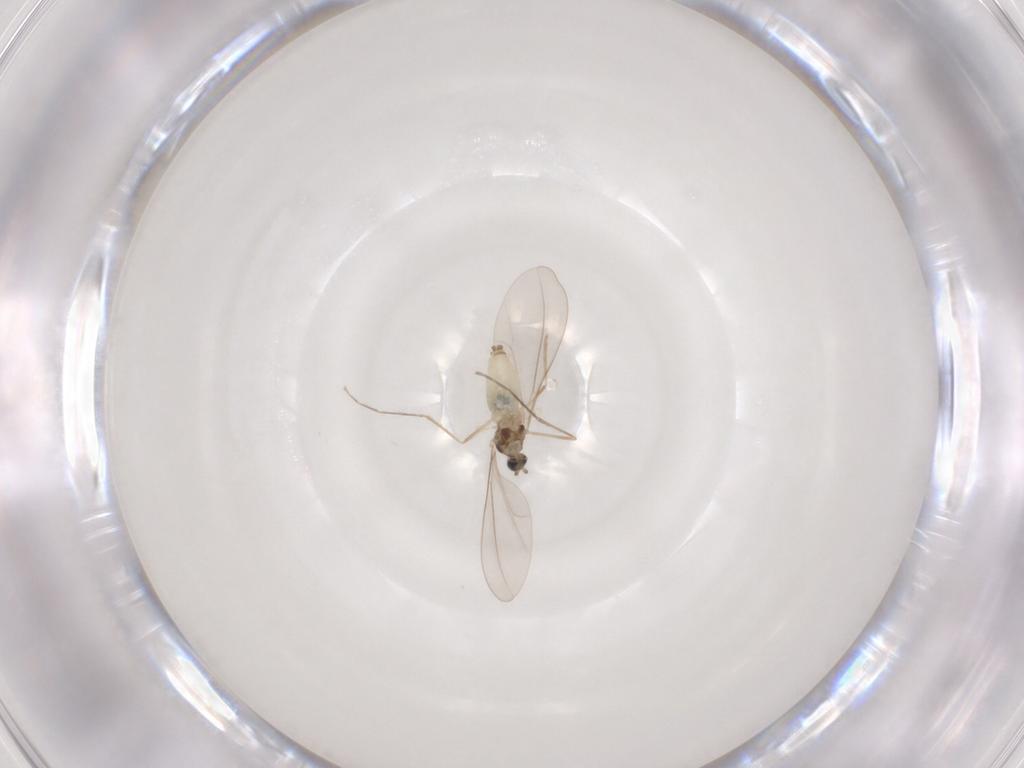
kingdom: Animalia
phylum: Arthropoda
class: Insecta
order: Diptera
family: Cecidomyiidae
